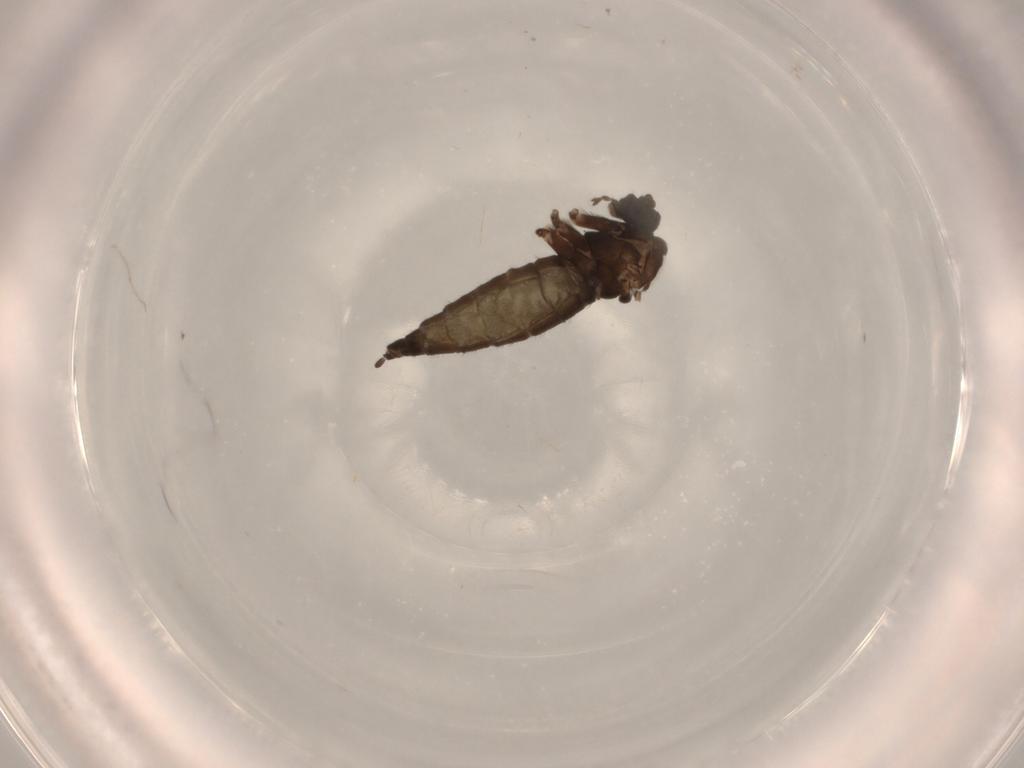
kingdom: Animalia
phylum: Arthropoda
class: Insecta
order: Diptera
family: Sciaridae
